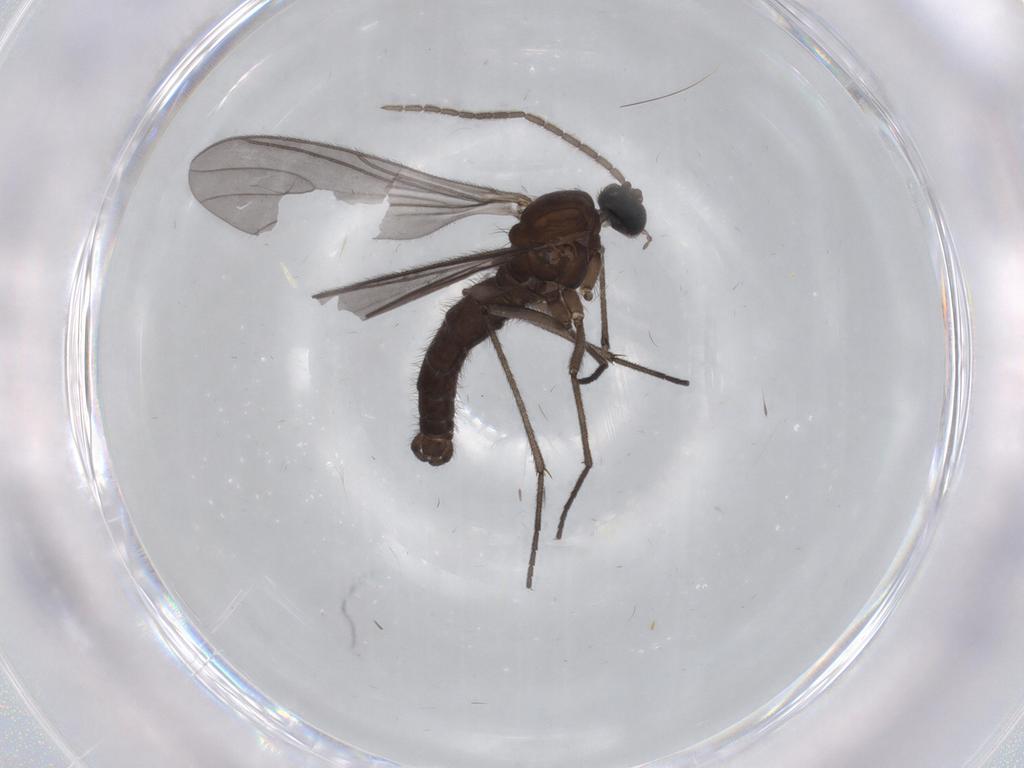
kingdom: Animalia
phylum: Arthropoda
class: Insecta
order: Diptera
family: Sciaridae
